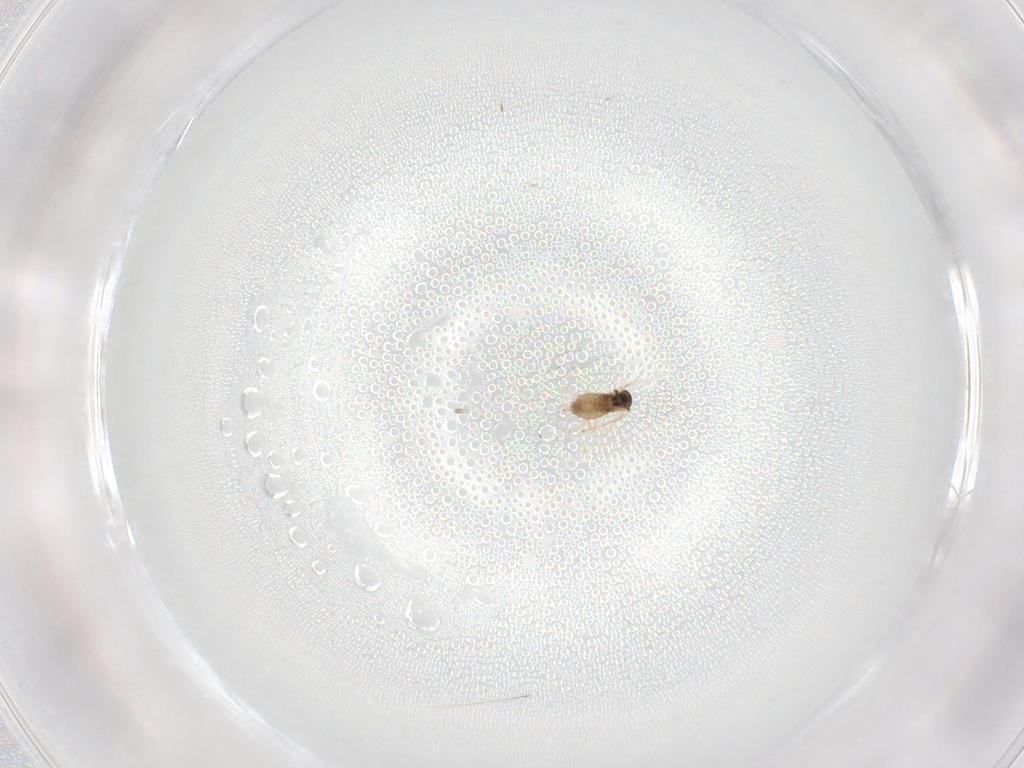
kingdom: Animalia
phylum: Arthropoda
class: Insecta
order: Diptera
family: Cecidomyiidae
